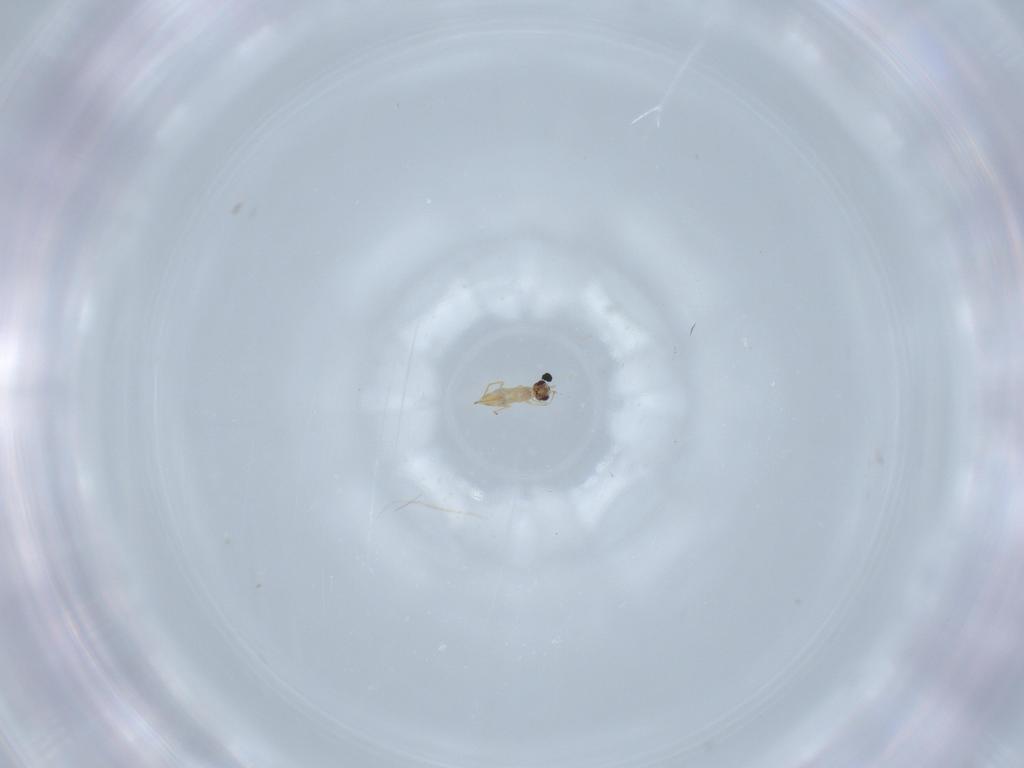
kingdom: Animalia
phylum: Arthropoda
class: Insecta
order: Hymenoptera
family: Mymaridae
